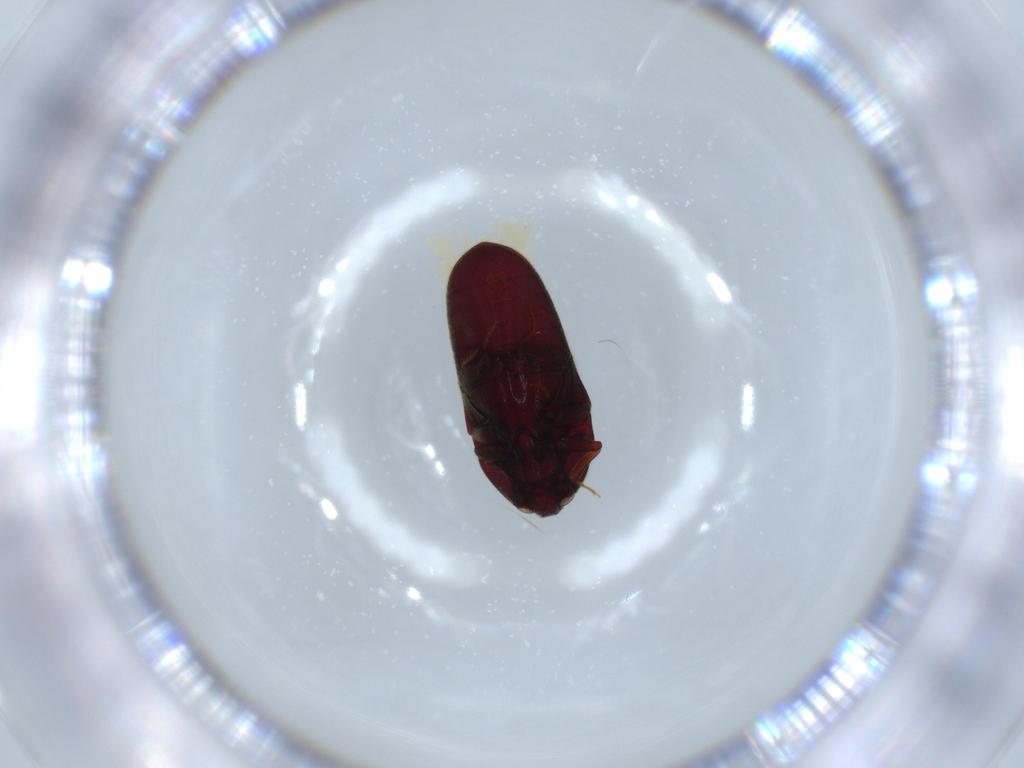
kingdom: Animalia
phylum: Arthropoda
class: Insecta
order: Coleoptera
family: Throscidae
